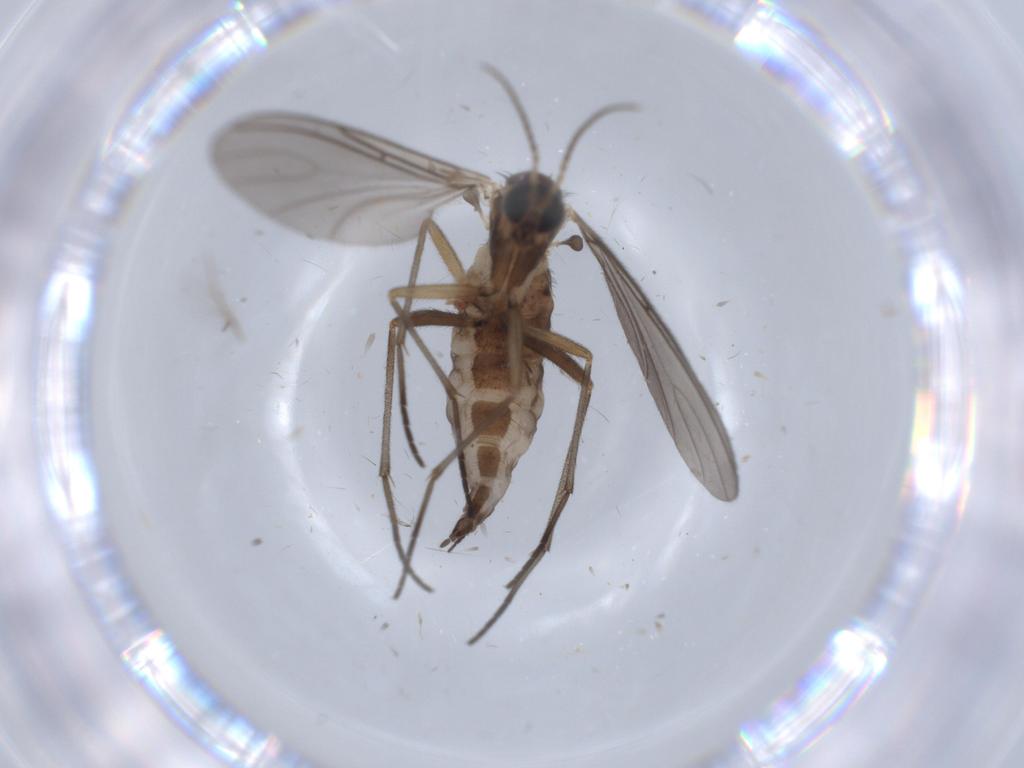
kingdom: Animalia
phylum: Arthropoda
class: Insecta
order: Diptera
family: Sciaridae
